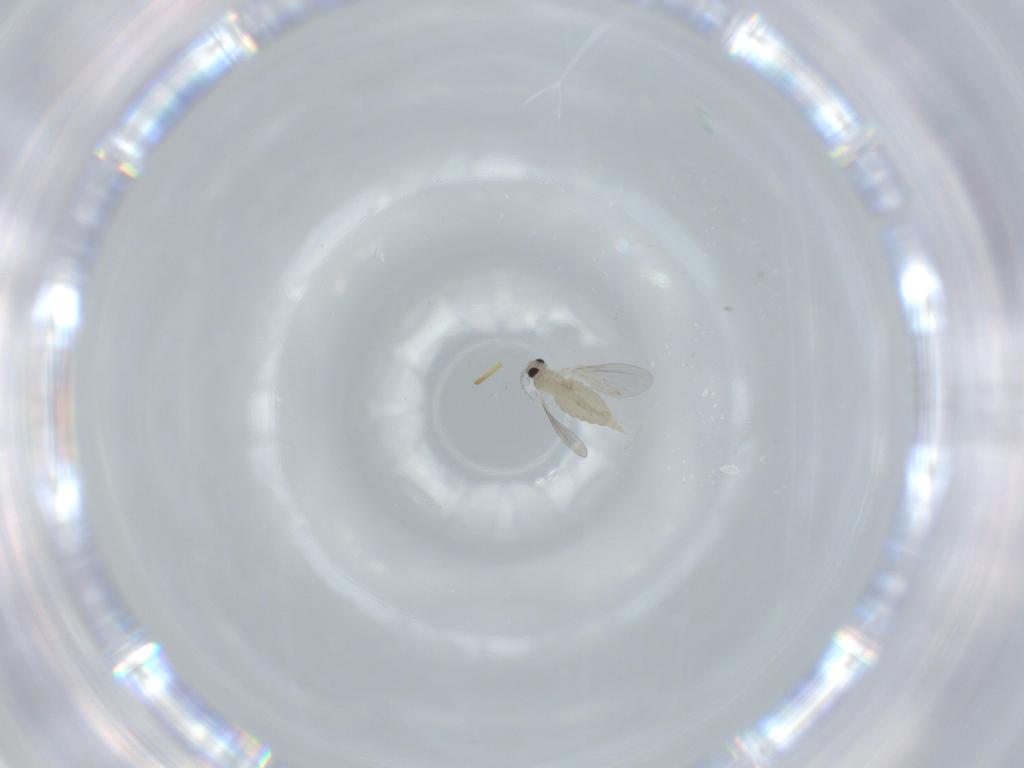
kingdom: Animalia
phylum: Arthropoda
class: Insecta
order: Diptera
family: Cecidomyiidae
